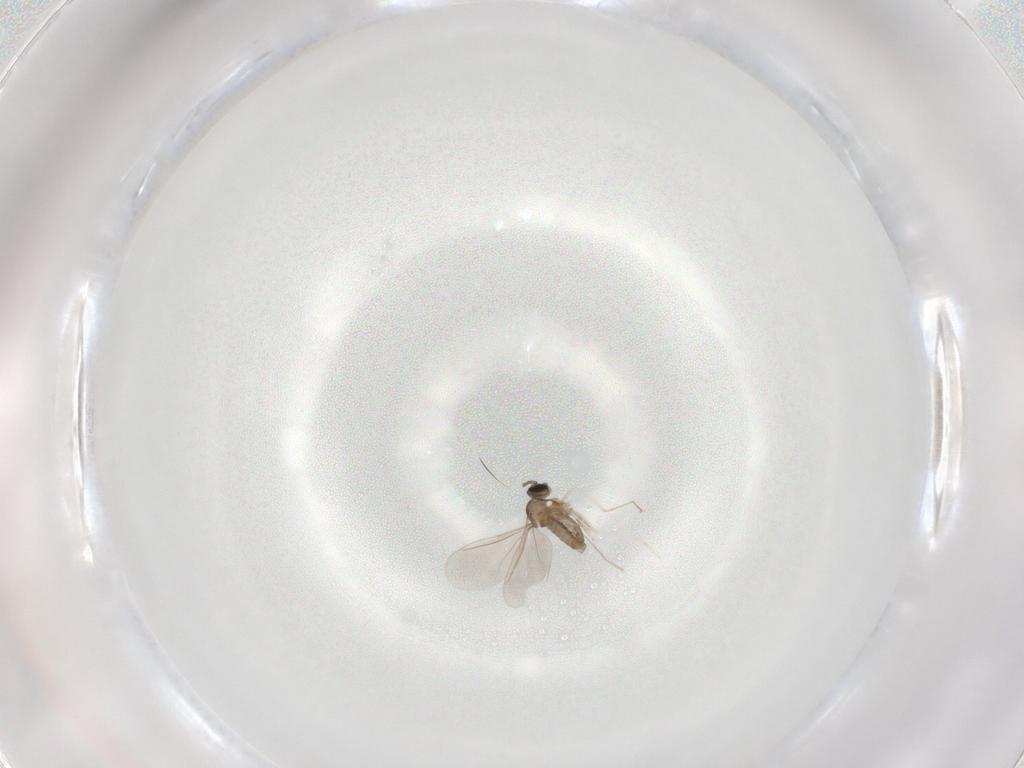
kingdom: Animalia
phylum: Arthropoda
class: Insecta
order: Diptera
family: Cecidomyiidae
